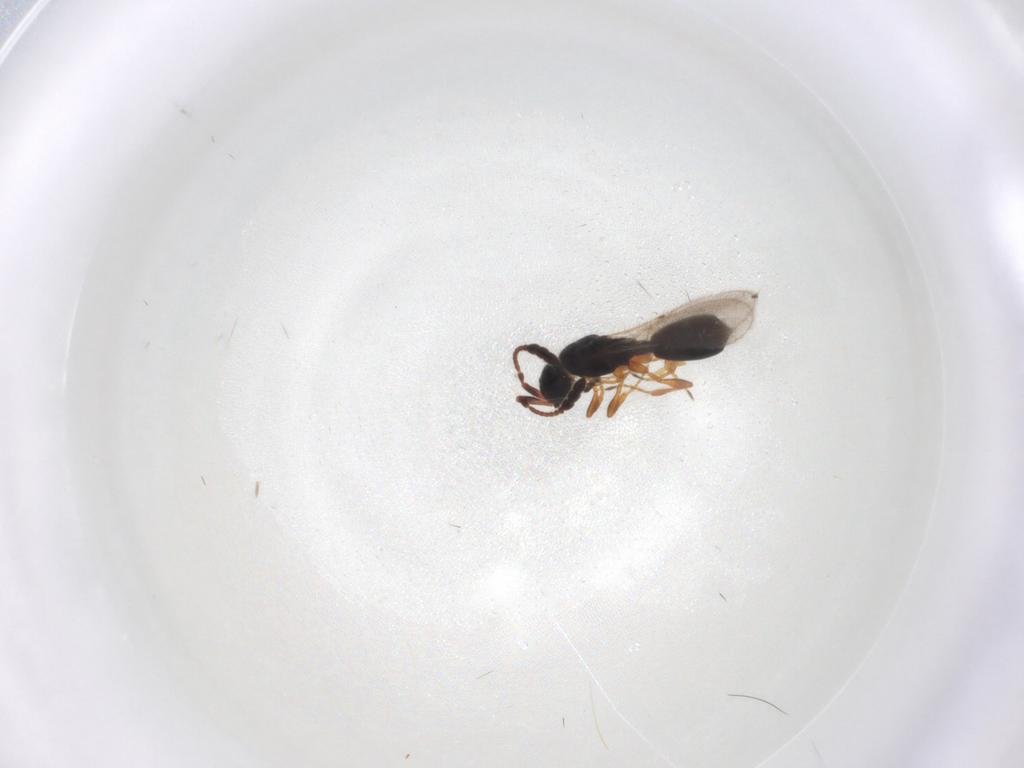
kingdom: Animalia
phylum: Arthropoda
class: Insecta
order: Hymenoptera
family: Diapriidae
